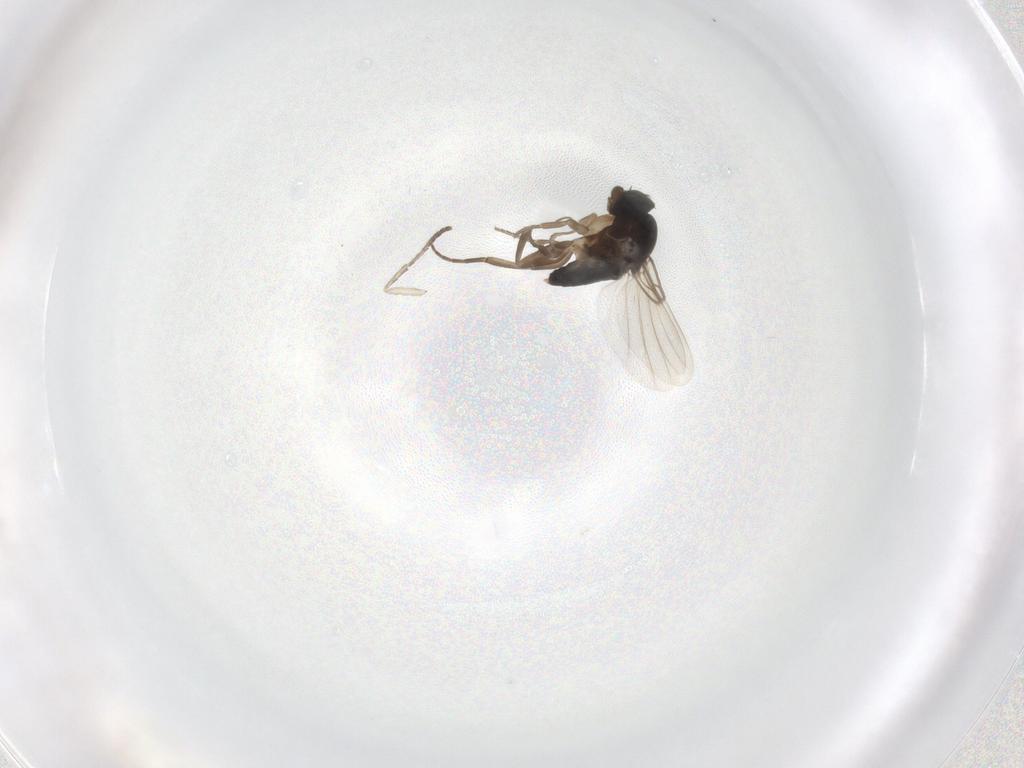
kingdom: Animalia
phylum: Arthropoda
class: Insecta
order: Diptera
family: Phoridae
